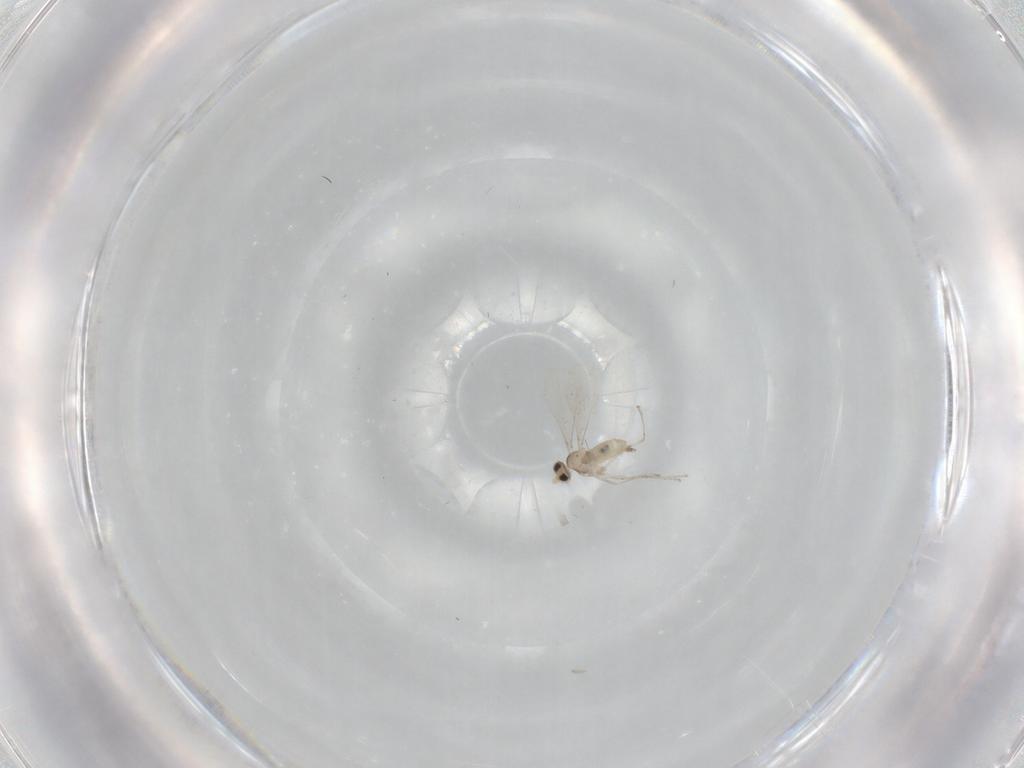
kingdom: Animalia
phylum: Arthropoda
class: Insecta
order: Diptera
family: Cecidomyiidae
